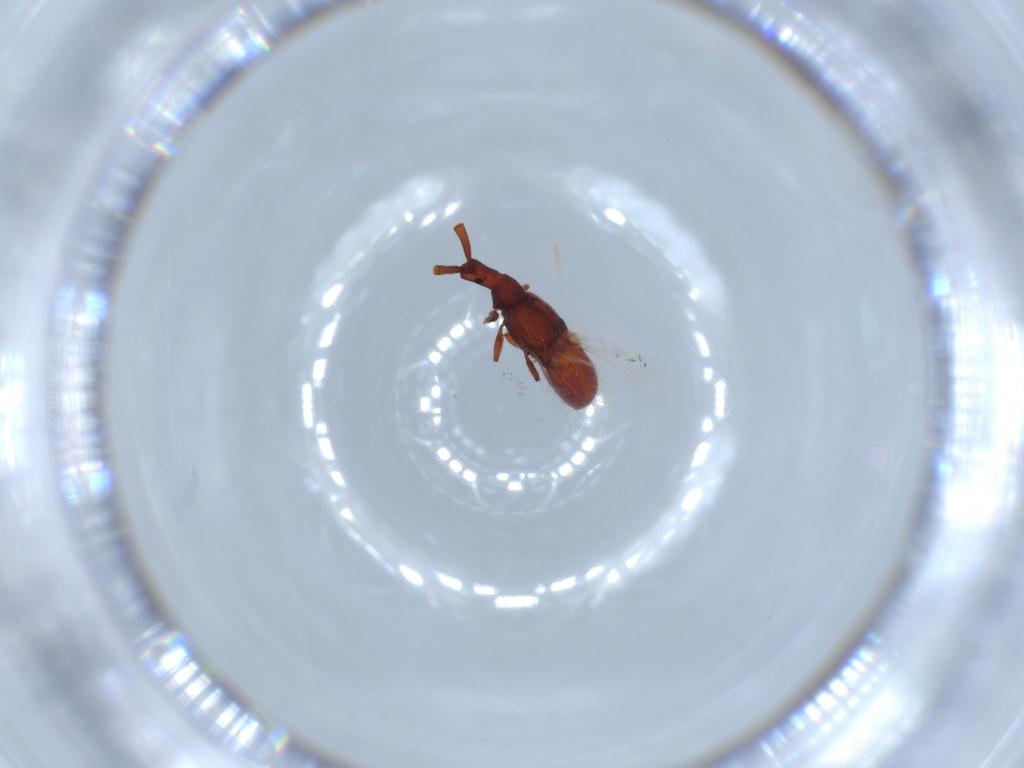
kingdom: Animalia
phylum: Arthropoda
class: Insecta
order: Coleoptera
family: Staphylinidae
